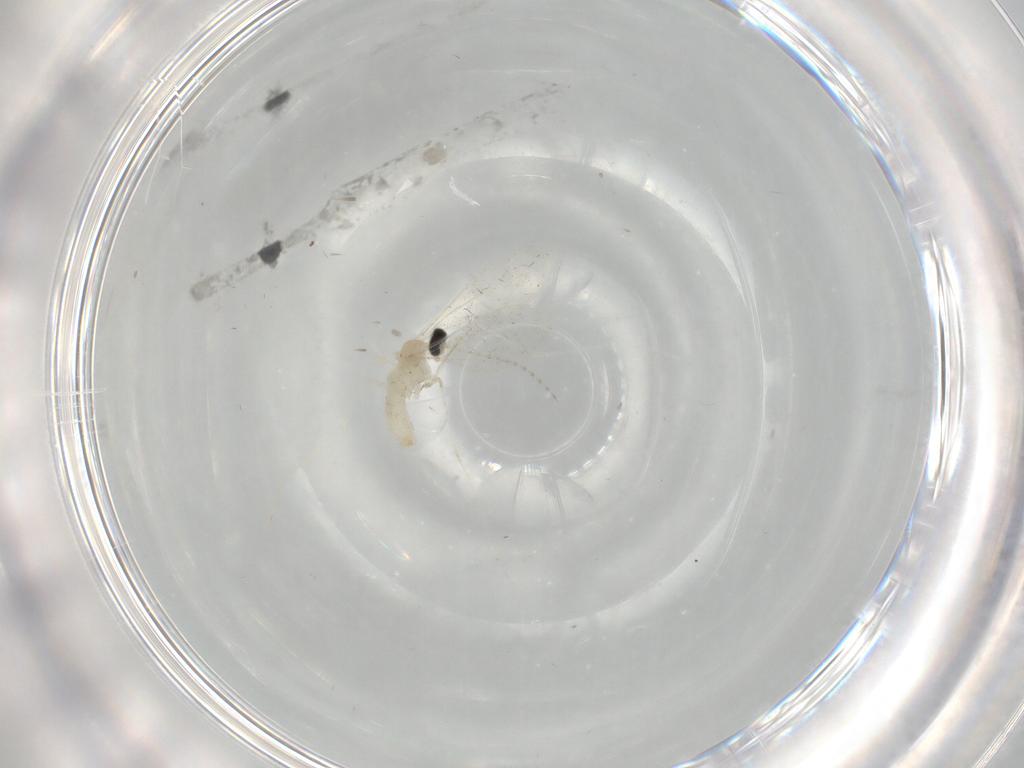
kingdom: Animalia
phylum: Arthropoda
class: Insecta
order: Diptera
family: Cecidomyiidae
